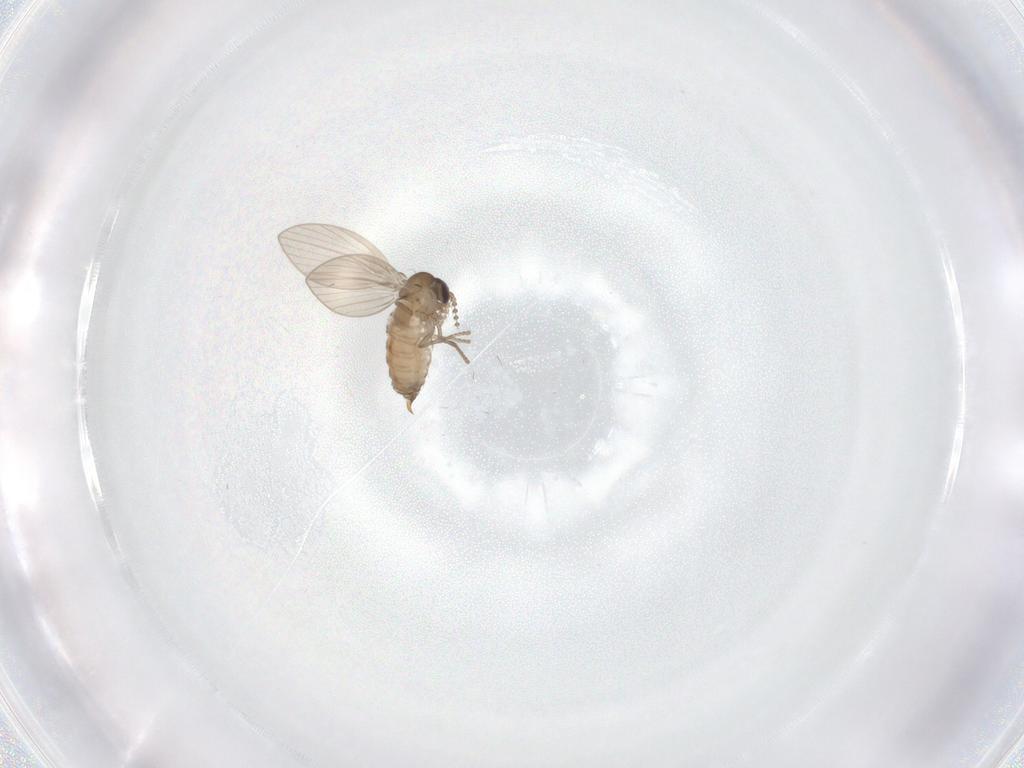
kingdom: Animalia
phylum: Arthropoda
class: Insecta
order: Diptera
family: Psychodidae
